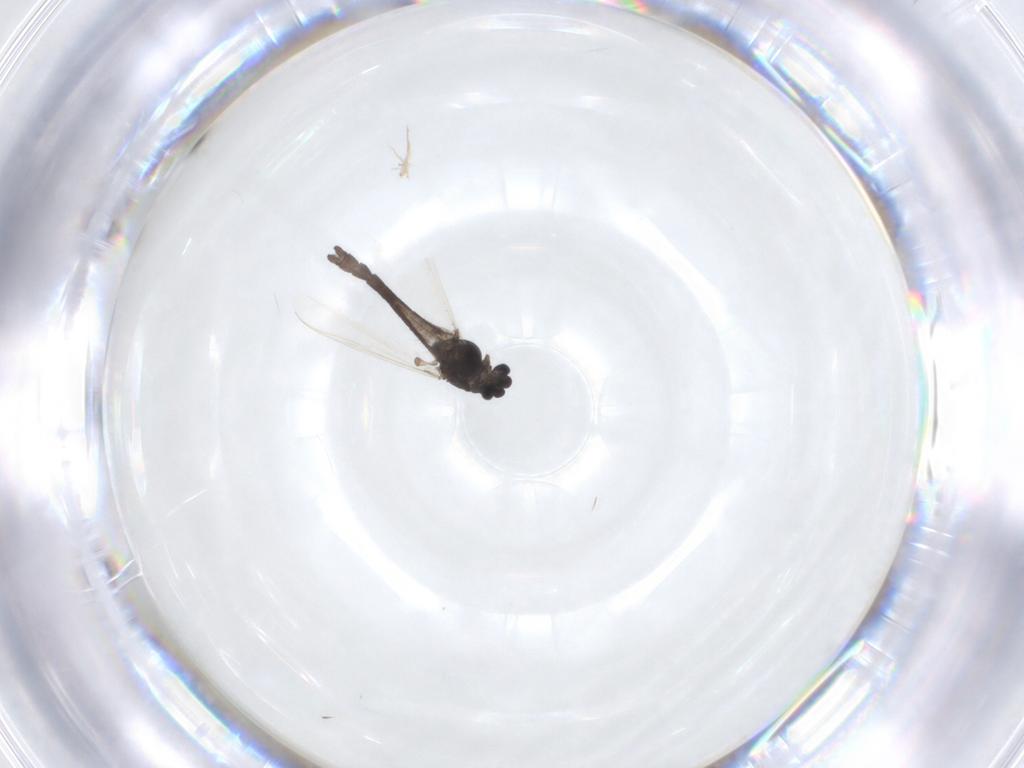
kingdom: Animalia
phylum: Arthropoda
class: Insecta
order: Diptera
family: Chironomidae
